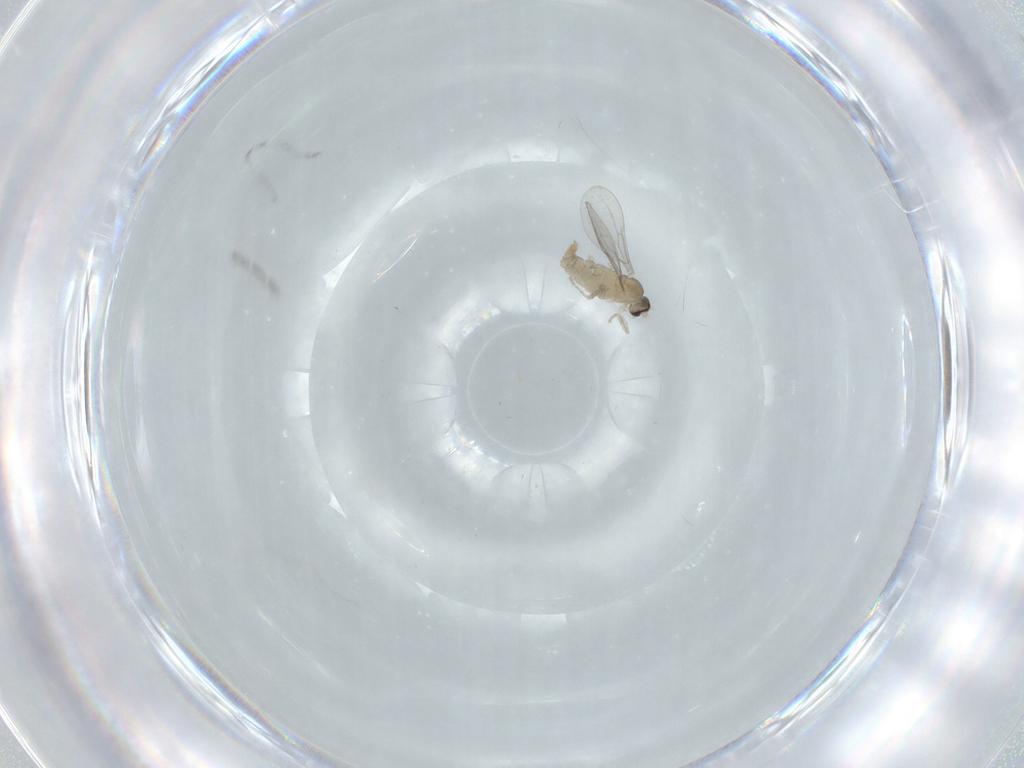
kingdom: Animalia
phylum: Arthropoda
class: Insecta
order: Diptera
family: Cecidomyiidae
